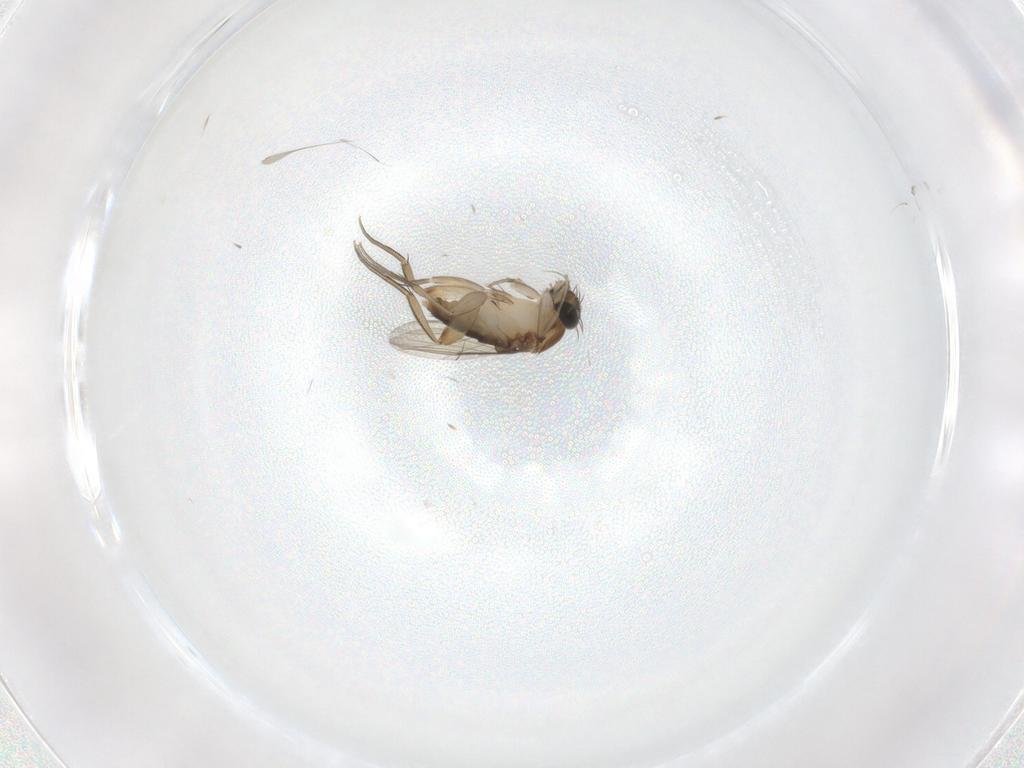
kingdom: Animalia
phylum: Arthropoda
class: Insecta
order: Diptera
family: Phoridae
